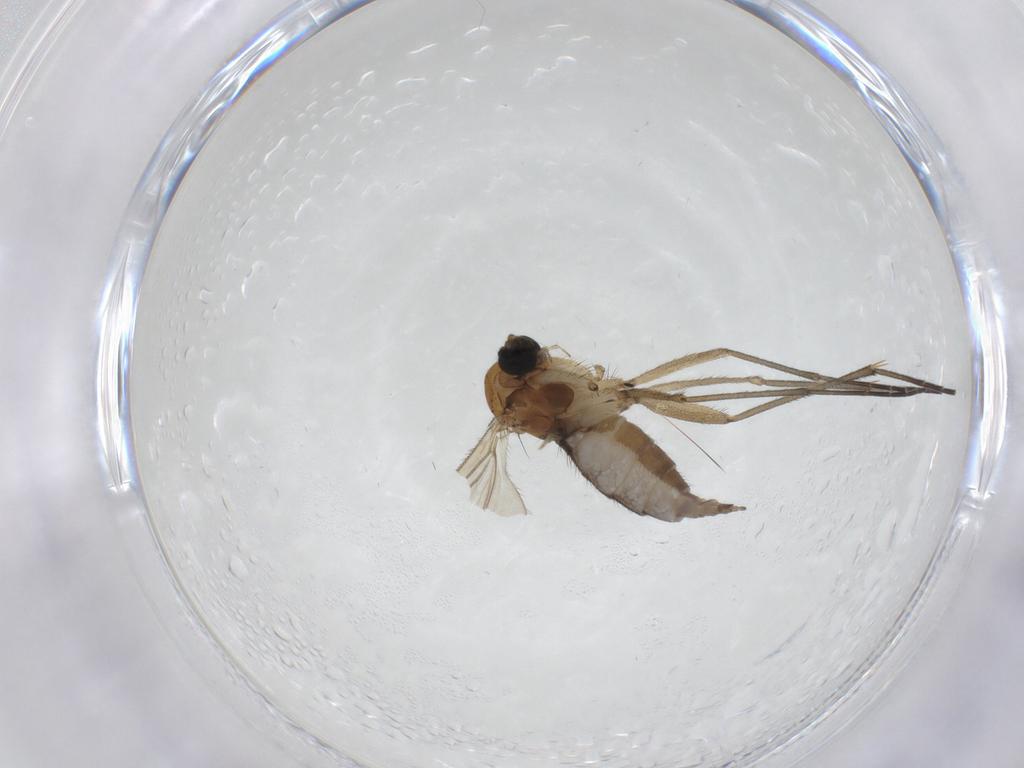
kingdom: Animalia
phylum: Arthropoda
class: Insecta
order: Diptera
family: Sciaridae
